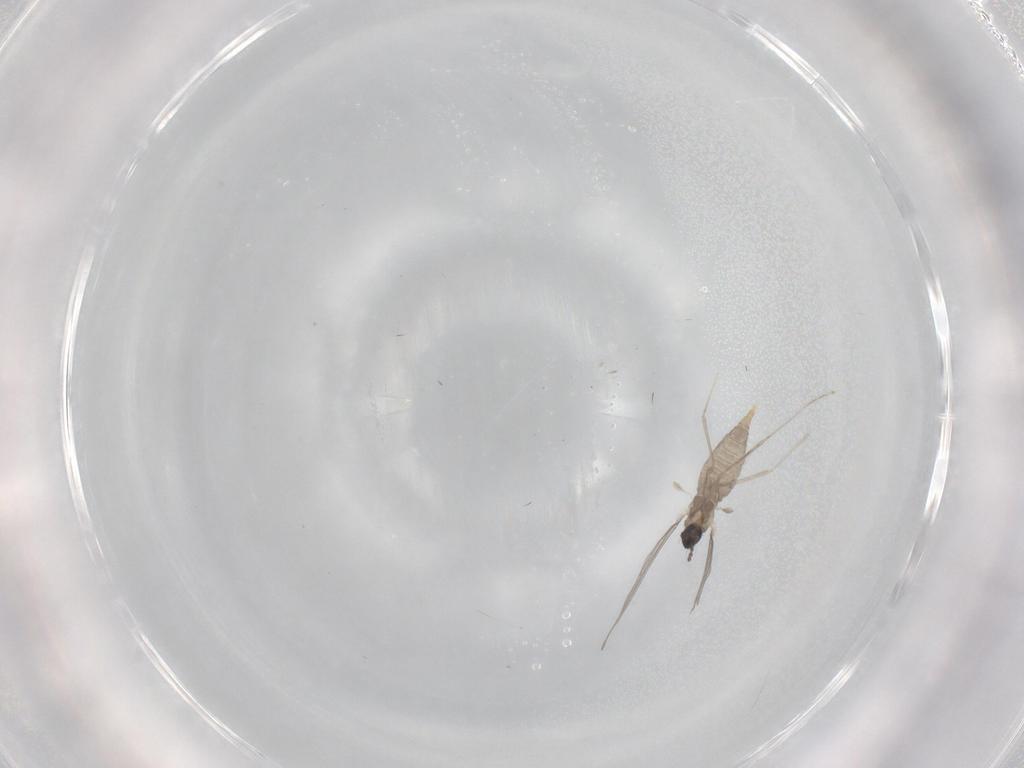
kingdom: Animalia
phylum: Arthropoda
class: Insecta
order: Diptera
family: Cecidomyiidae
